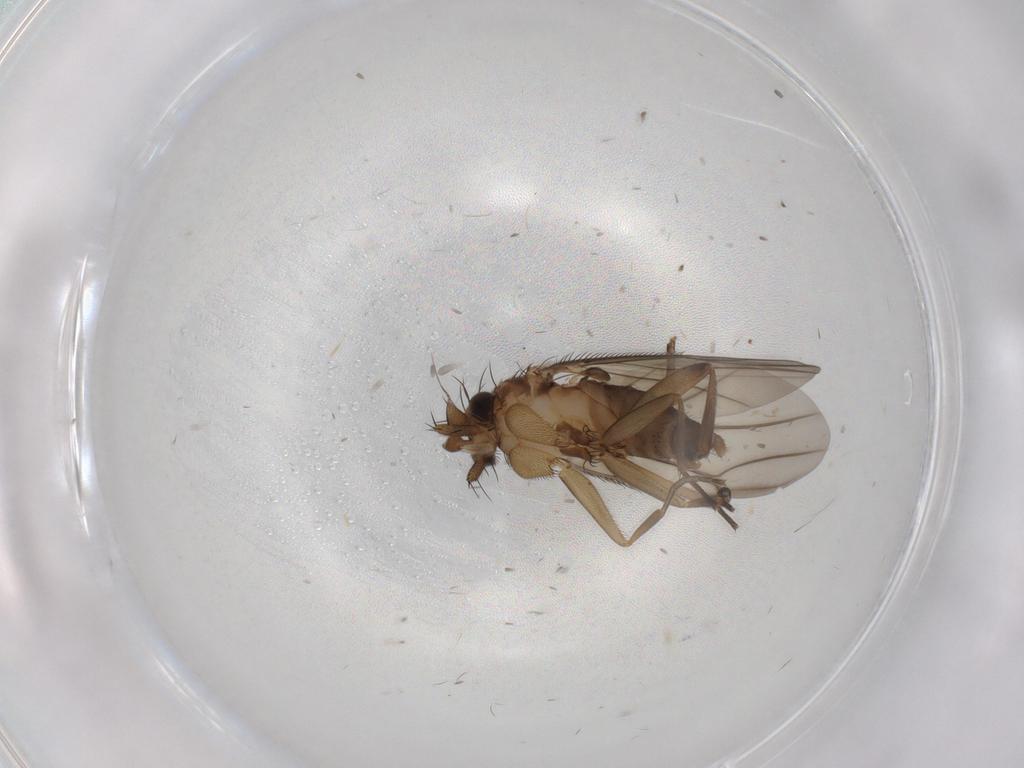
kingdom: Animalia
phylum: Arthropoda
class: Insecta
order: Diptera
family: Phoridae
